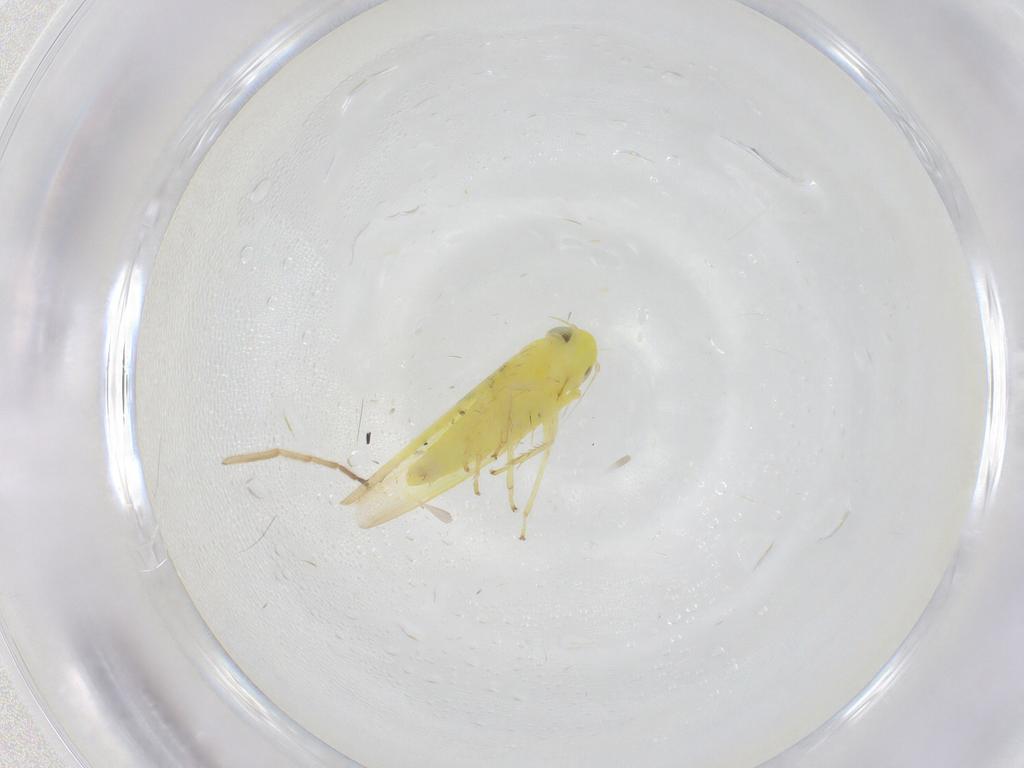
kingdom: Animalia
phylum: Arthropoda
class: Insecta
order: Hemiptera
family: Cicadellidae
